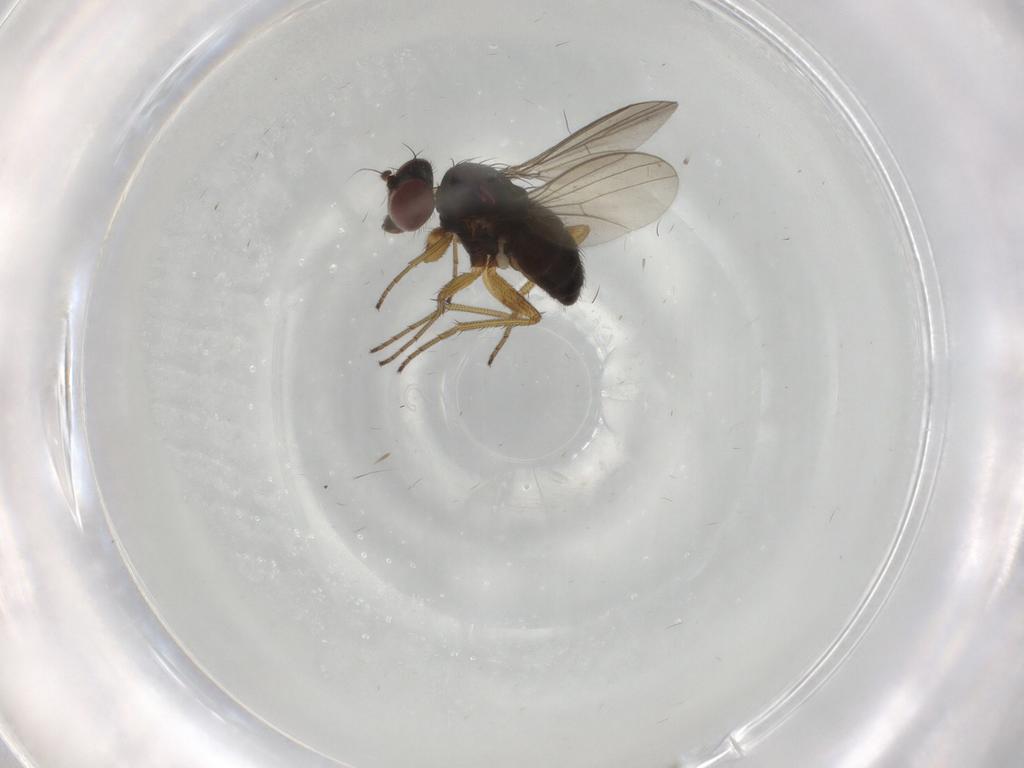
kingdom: Animalia
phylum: Arthropoda
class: Insecta
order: Diptera
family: Dolichopodidae
